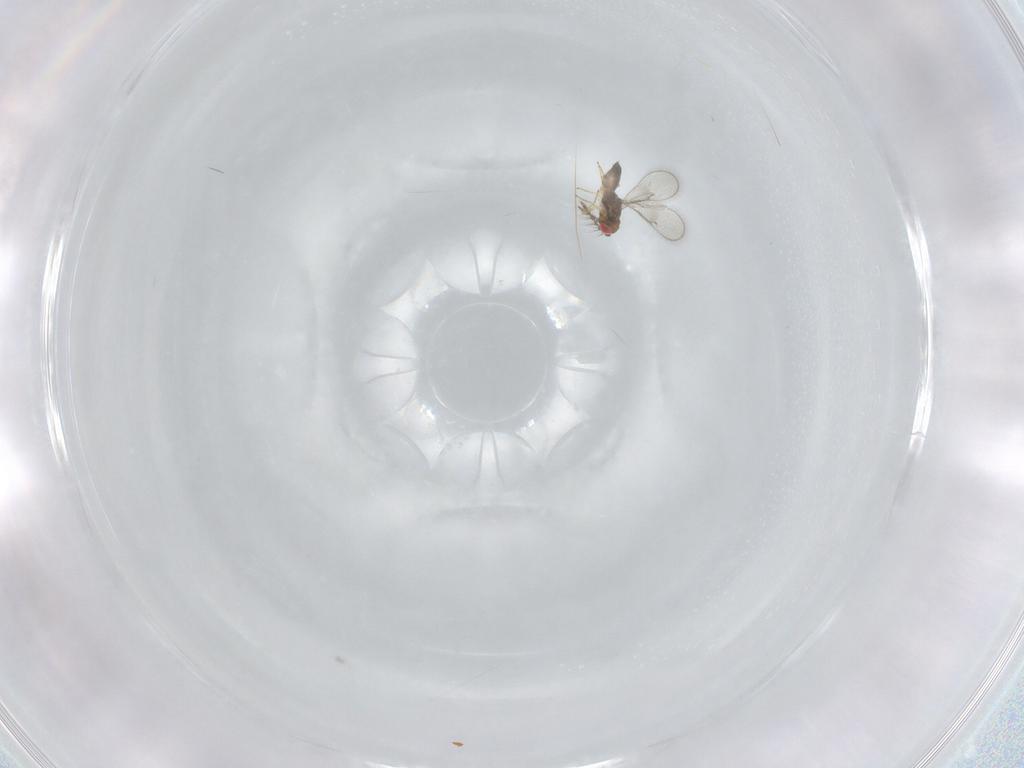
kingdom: Animalia
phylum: Arthropoda
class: Insecta
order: Hymenoptera
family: Eulophidae
